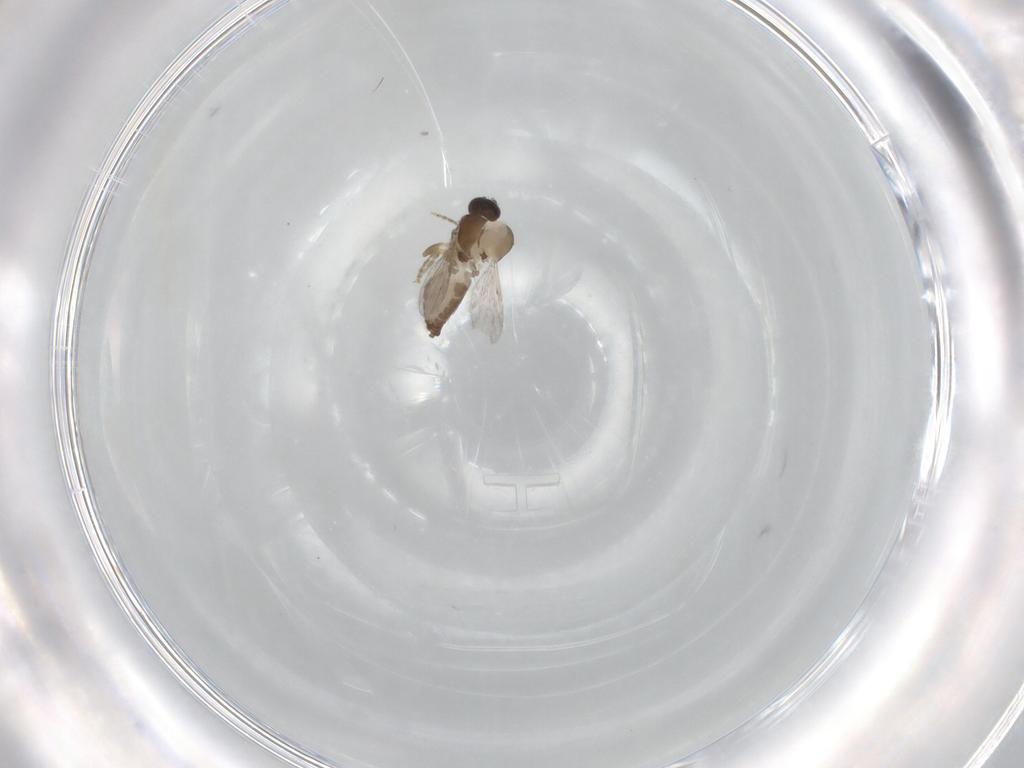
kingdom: Animalia
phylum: Arthropoda
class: Insecta
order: Diptera
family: Ceratopogonidae
